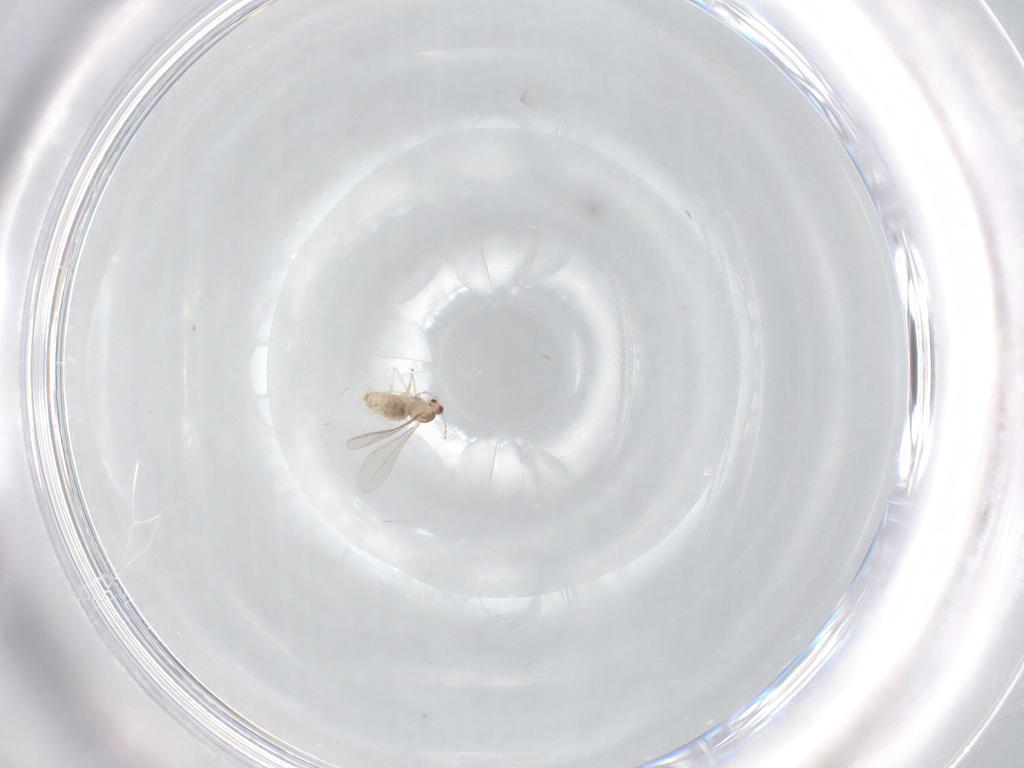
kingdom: Animalia
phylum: Arthropoda
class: Insecta
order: Diptera
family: Cecidomyiidae
